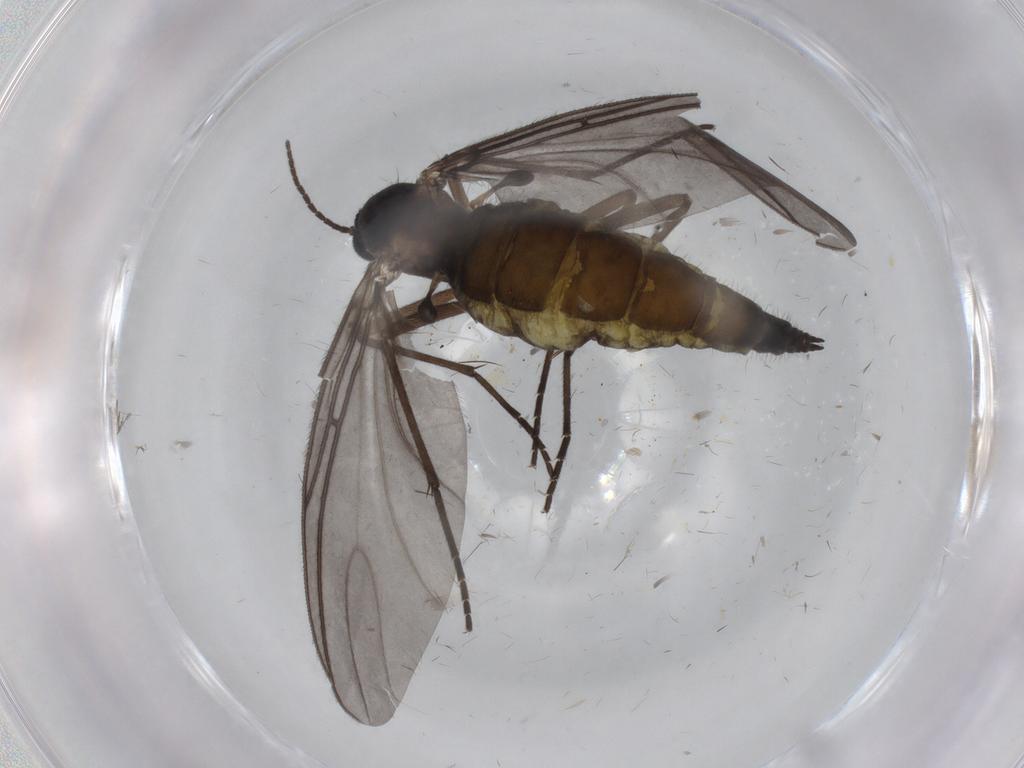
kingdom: Animalia
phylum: Arthropoda
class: Insecta
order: Diptera
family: Sciaridae
